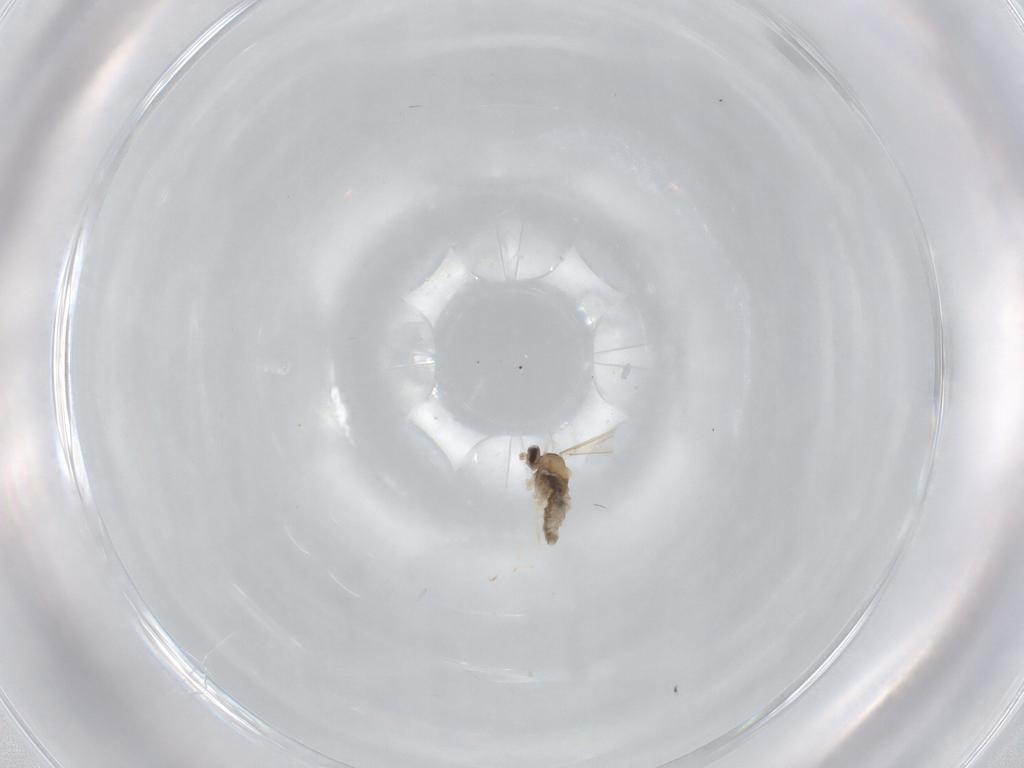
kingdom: Animalia
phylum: Arthropoda
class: Insecta
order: Diptera
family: Cecidomyiidae
